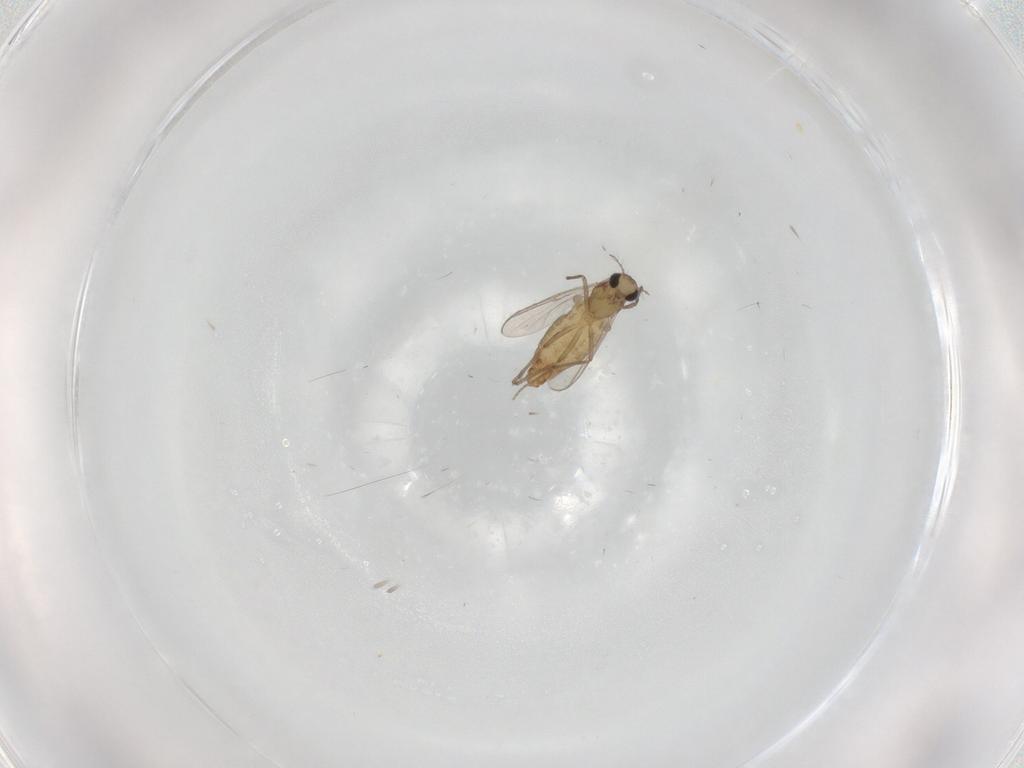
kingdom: Animalia
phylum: Arthropoda
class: Insecta
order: Diptera
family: Chironomidae
